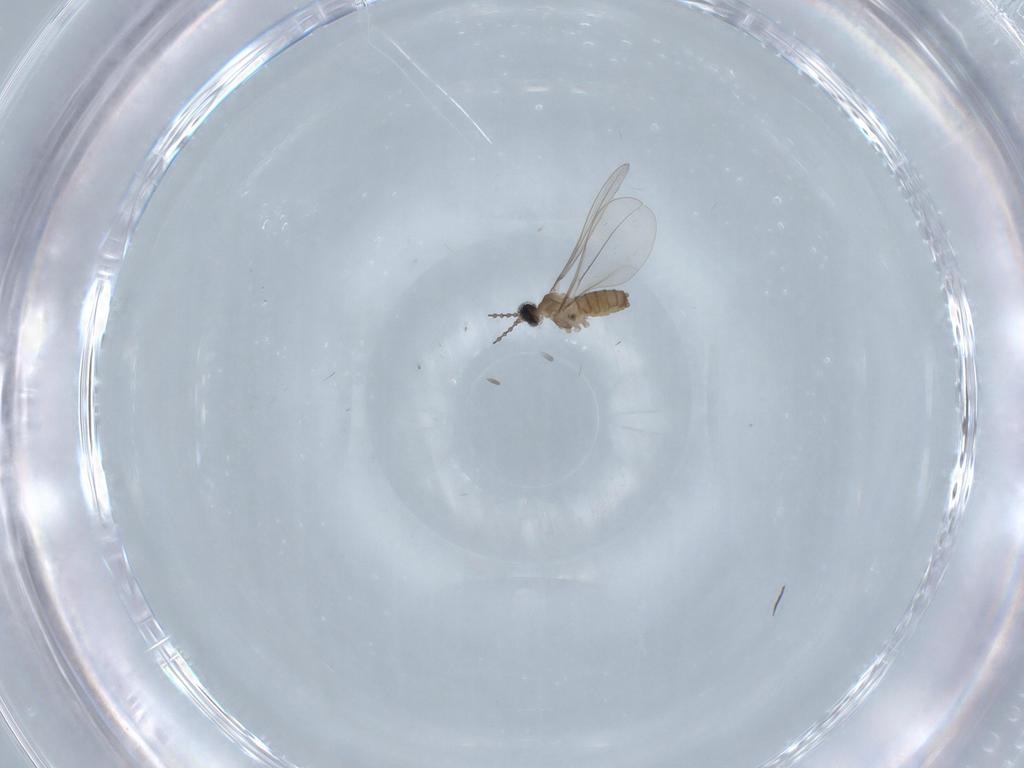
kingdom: Animalia
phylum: Arthropoda
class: Insecta
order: Diptera
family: Cecidomyiidae
